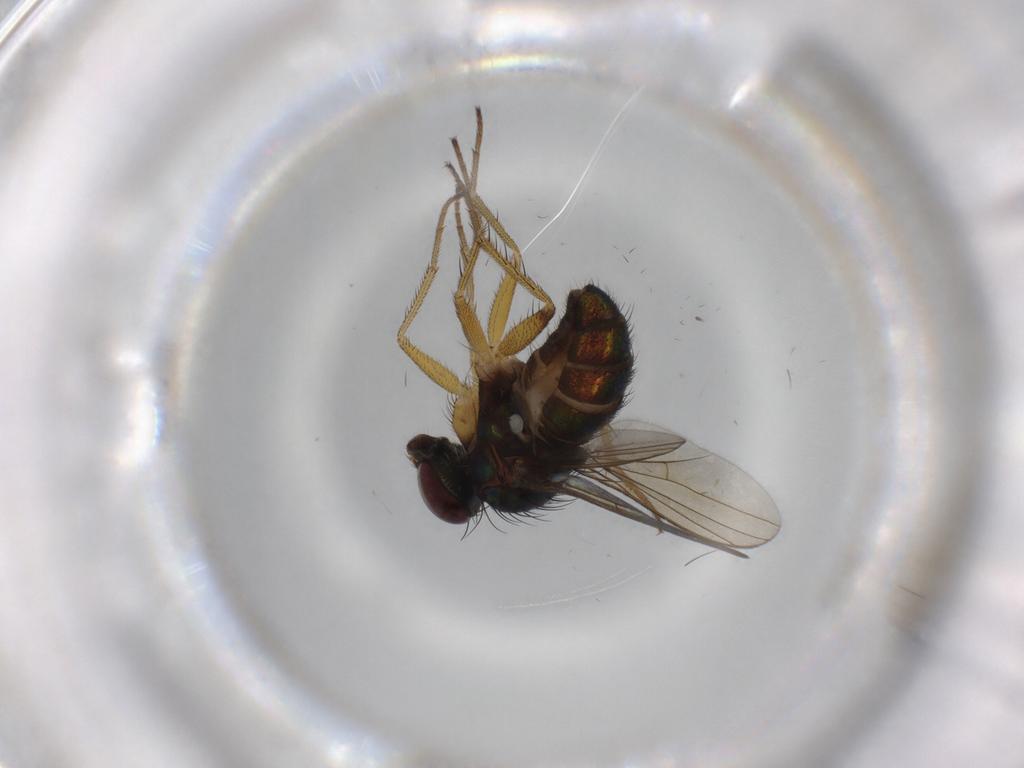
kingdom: Animalia
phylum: Arthropoda
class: Insecta
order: Diptera
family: Dolichopodidae
